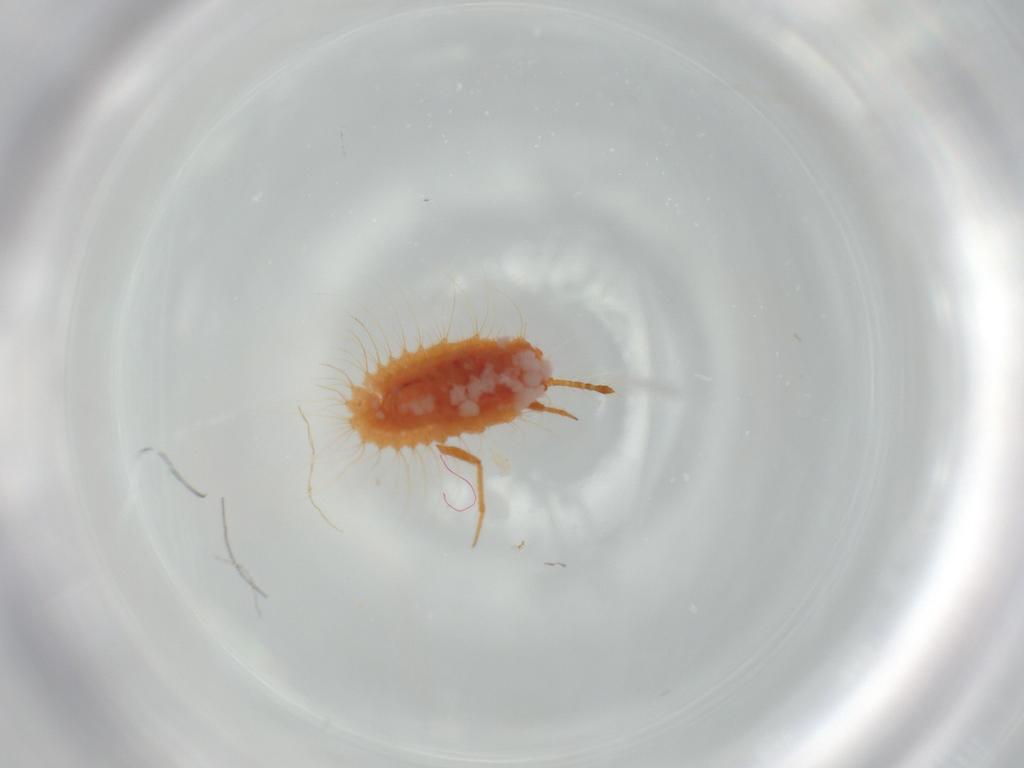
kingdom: Animalia
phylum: Arthropoda
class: Insecta
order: Hemiptera
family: Coccoidea_incertae_sedis
